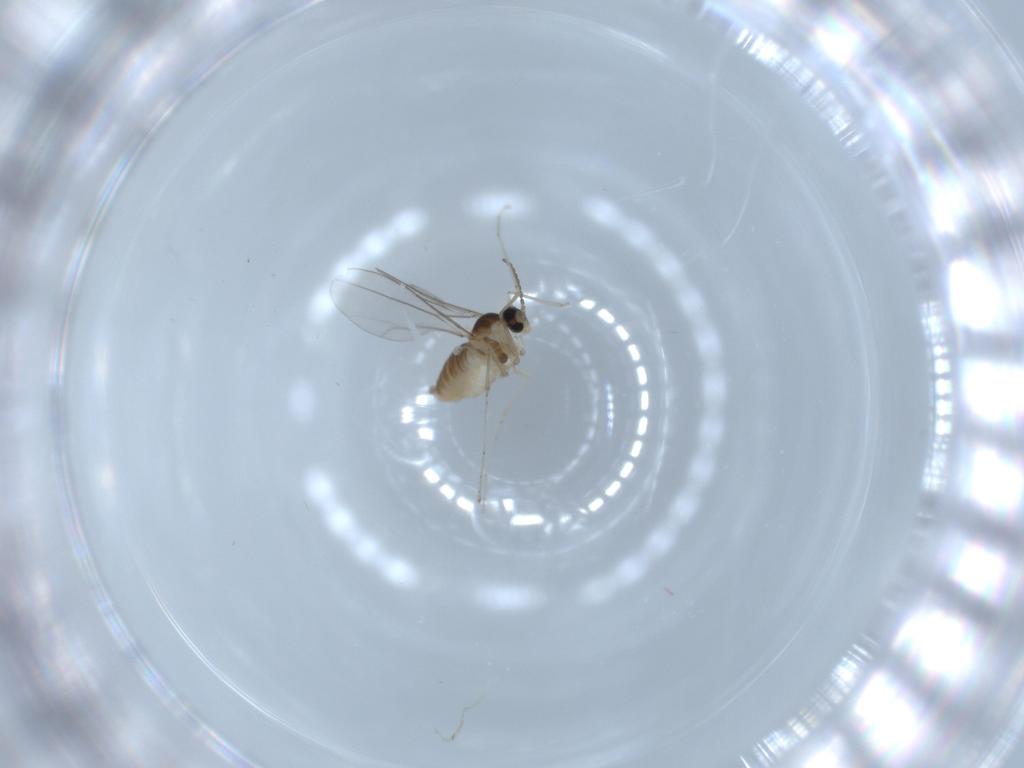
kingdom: Animalia
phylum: Arthropoda
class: Insecta
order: Diptera
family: Cecidomyiidae
